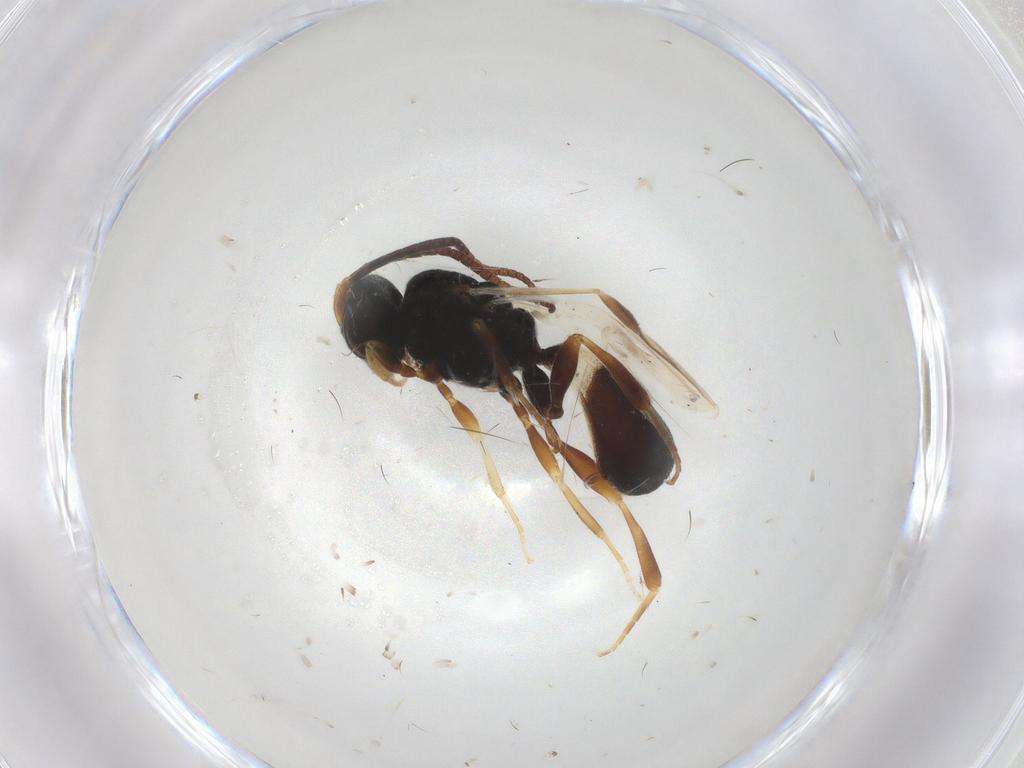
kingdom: Animalia
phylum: Arthropoda
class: Insecta
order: Hymenoptera
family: Braconidae
